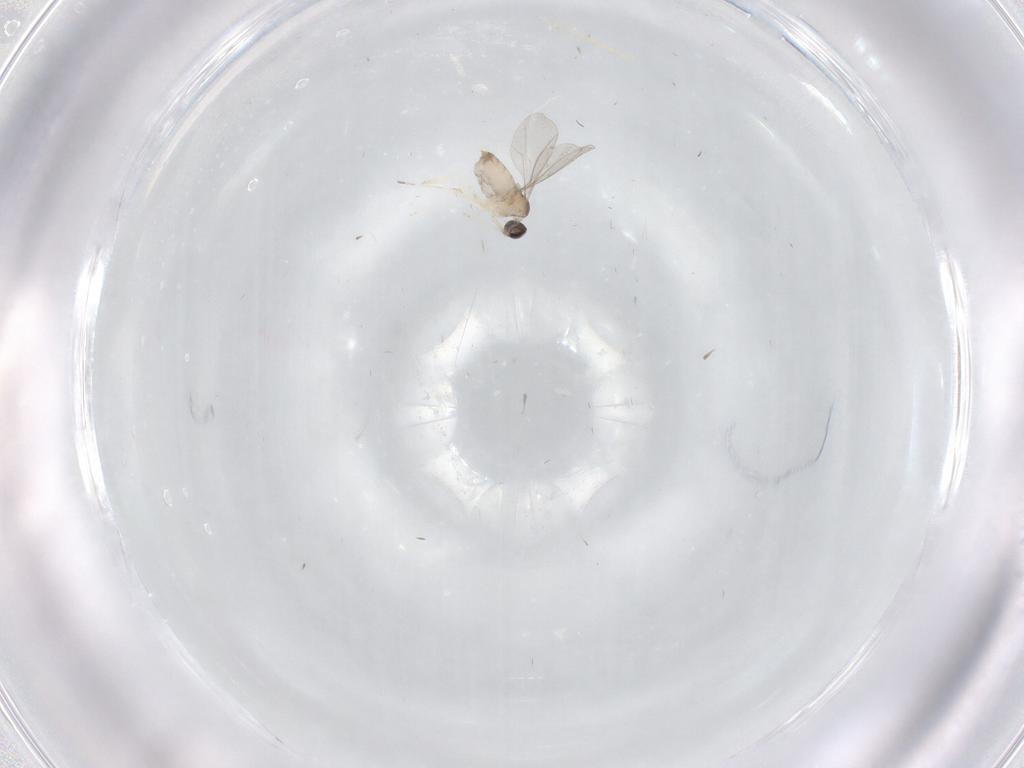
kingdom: Animalia
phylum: Arthropoda
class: Insecta
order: Diptera
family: Cecidomyiidae
